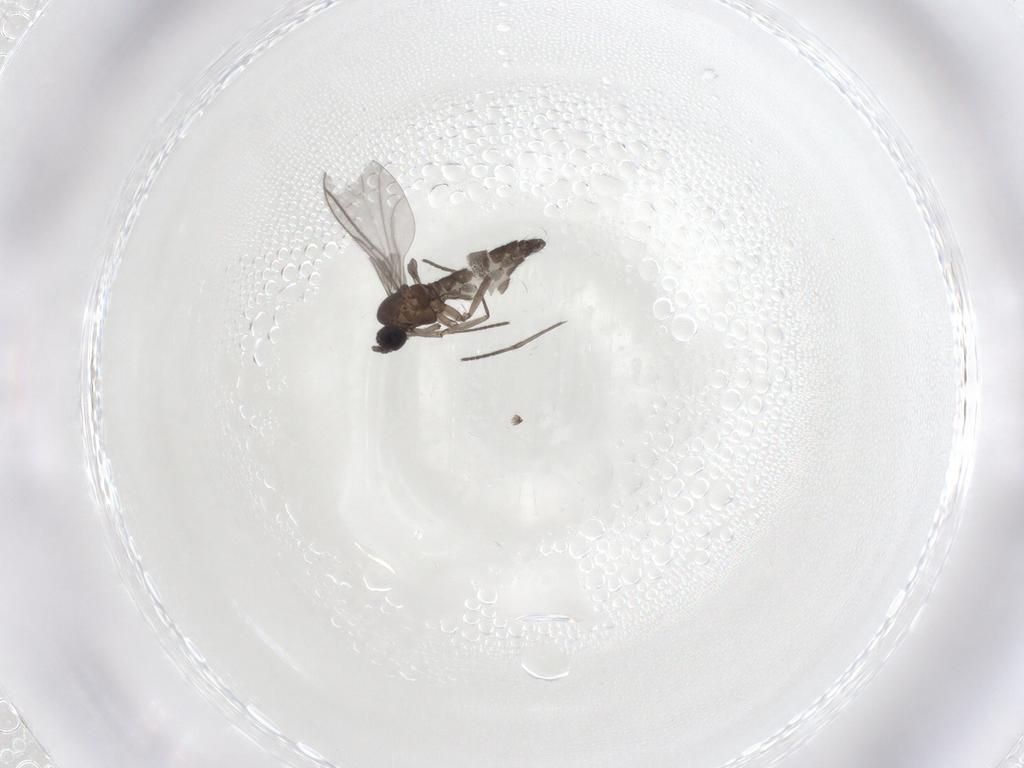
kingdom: Animalia
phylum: Arthropoda
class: Insecta
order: Diptera
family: Sciaridae
